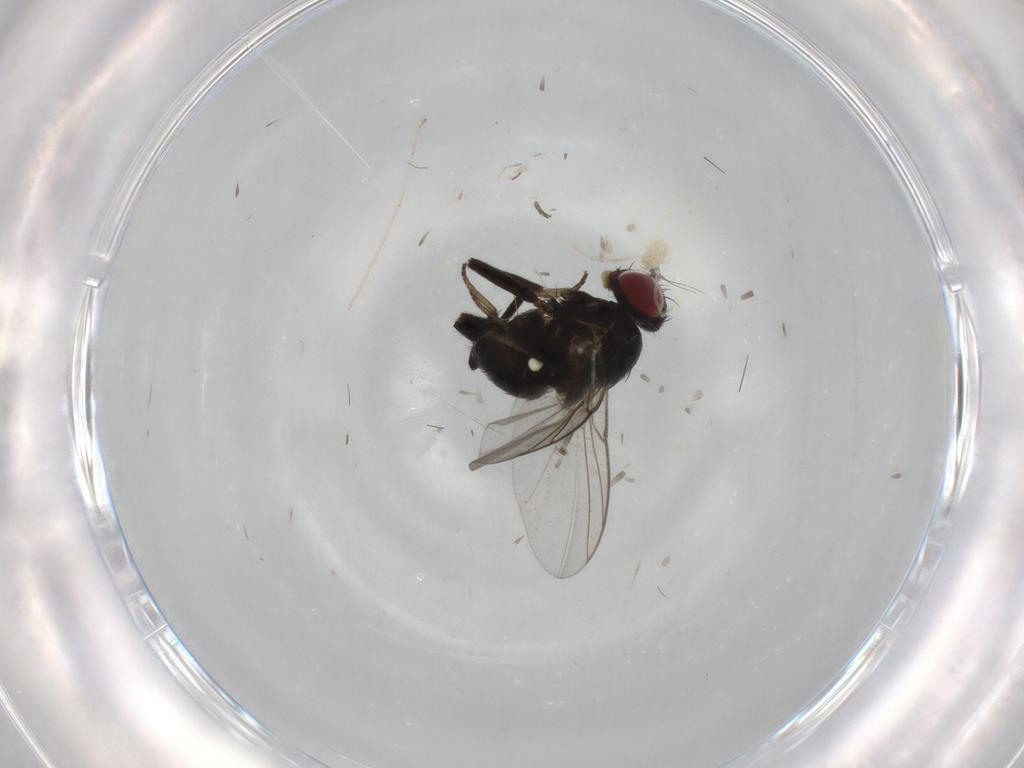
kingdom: Animalia
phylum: Arthropoda
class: Insecta
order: Diptera
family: Agromyzidae
